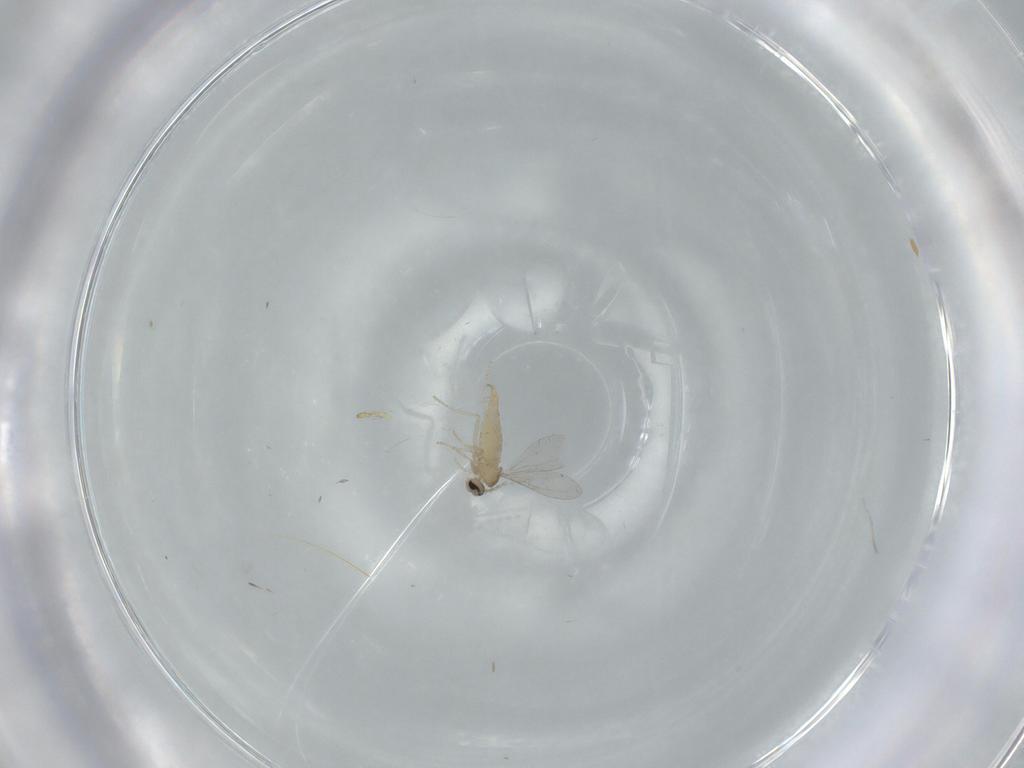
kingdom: Animalia
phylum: Arthropoda
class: Insecta
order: Diptera
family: Cecidomyiidae
